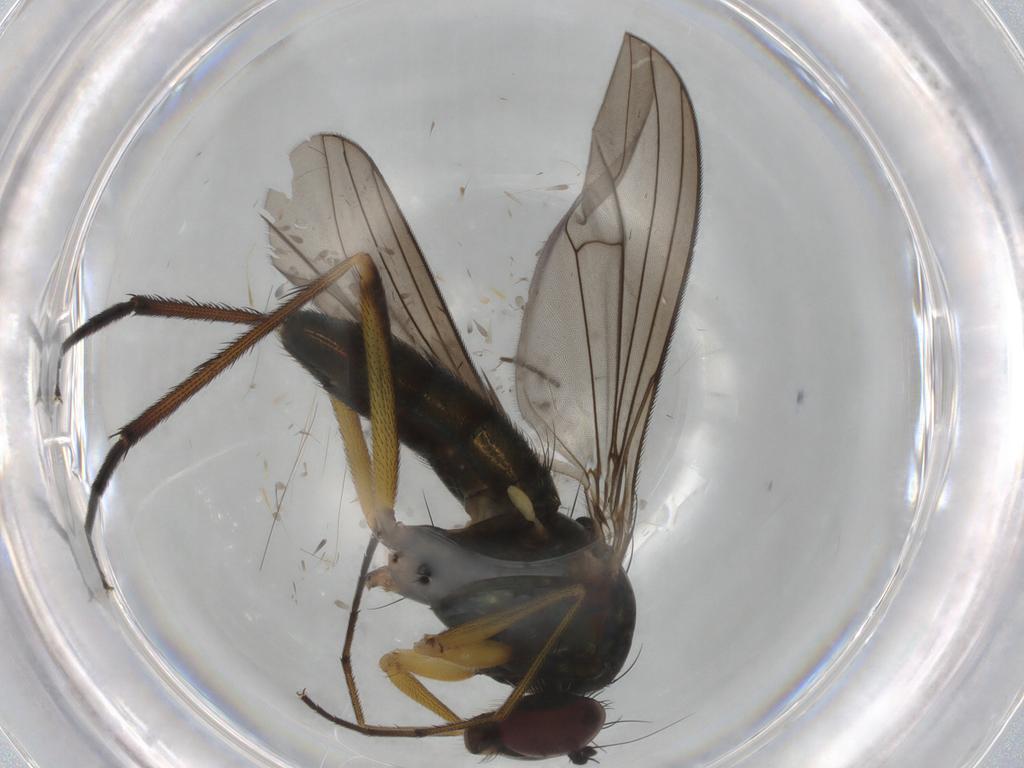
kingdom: Animalia
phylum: Arthropoda
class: Insecta
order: Diptera
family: Dolichopodidae
